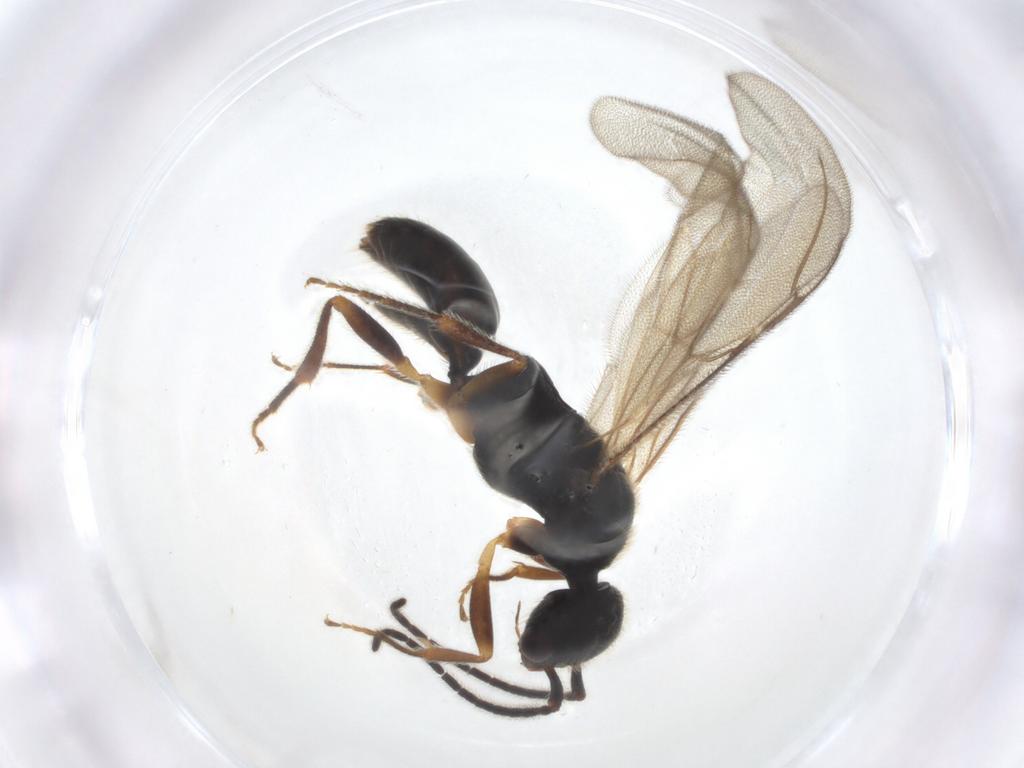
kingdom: Animalia
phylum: Arthropoda
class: Insecta
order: Hymenoptera
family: Bethylidae
